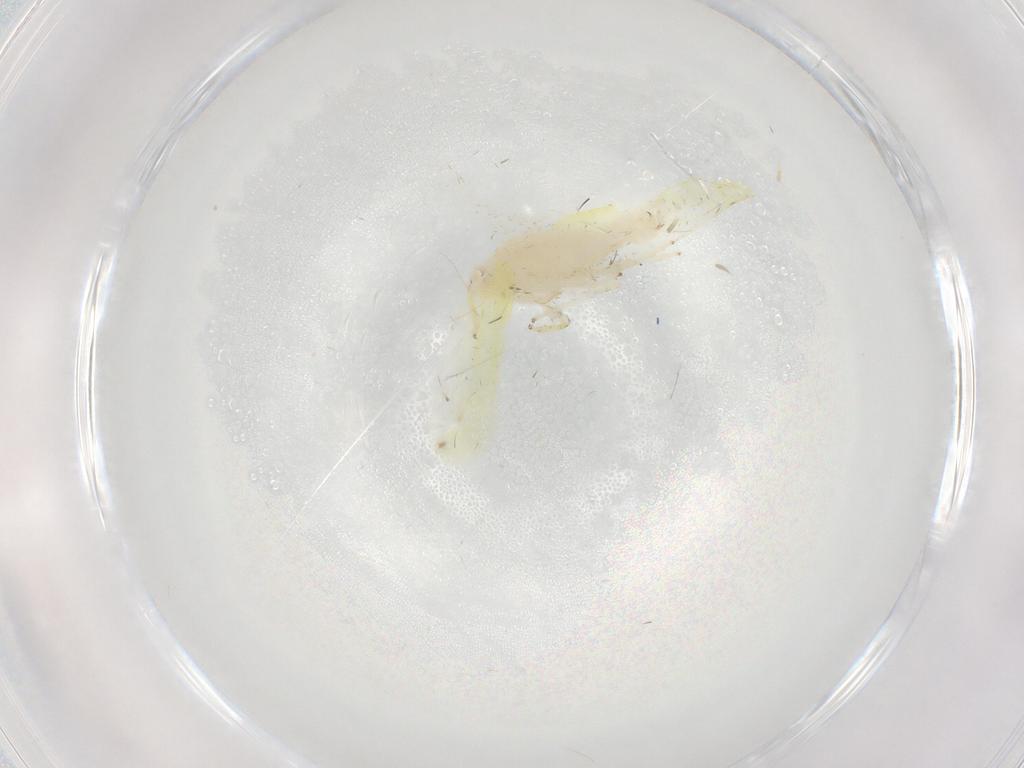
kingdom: Animalia
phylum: Arthropoda
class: Insecta
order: Hemiptera
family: Cicadellidae
